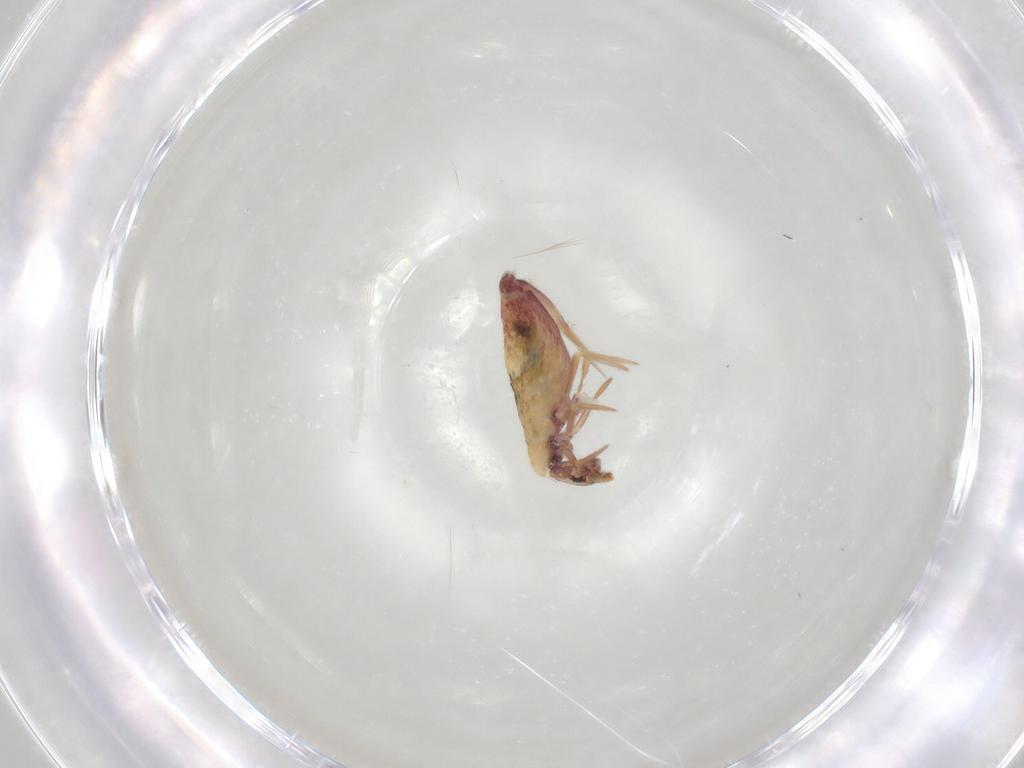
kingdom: Animalia
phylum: Arthropoda
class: Collembola
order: Entomobryomorpha
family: Entomobryidae
